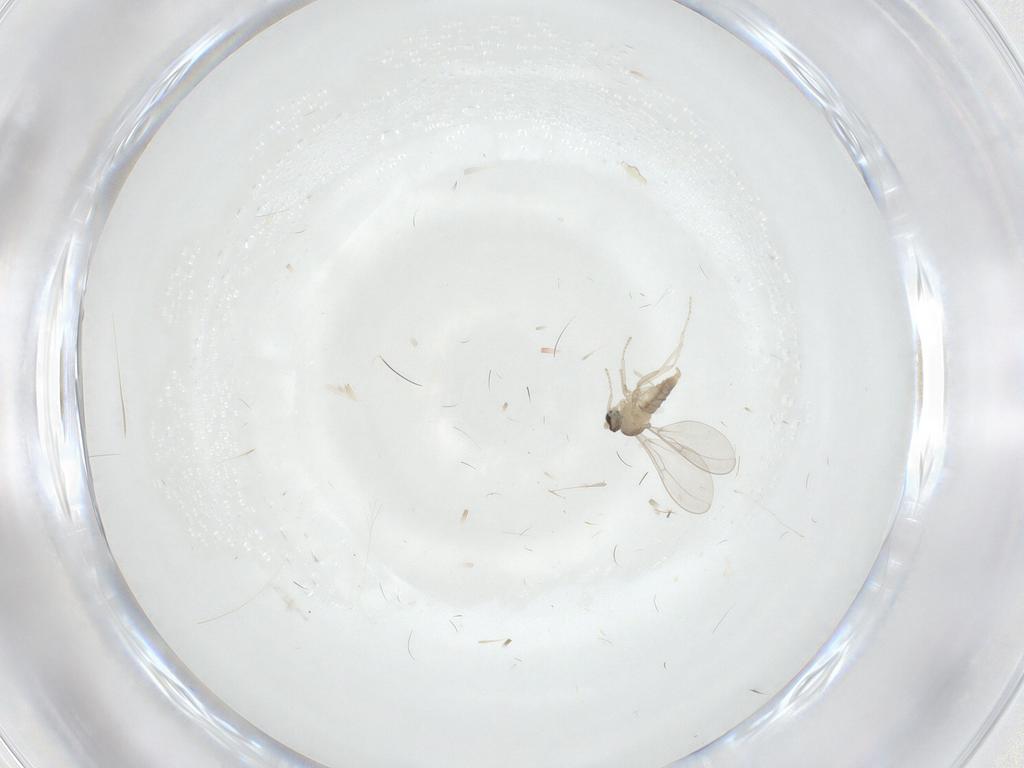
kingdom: Animalia
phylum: Arthropoda
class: Insecta
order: Diptera
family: Cecidomyiidae
